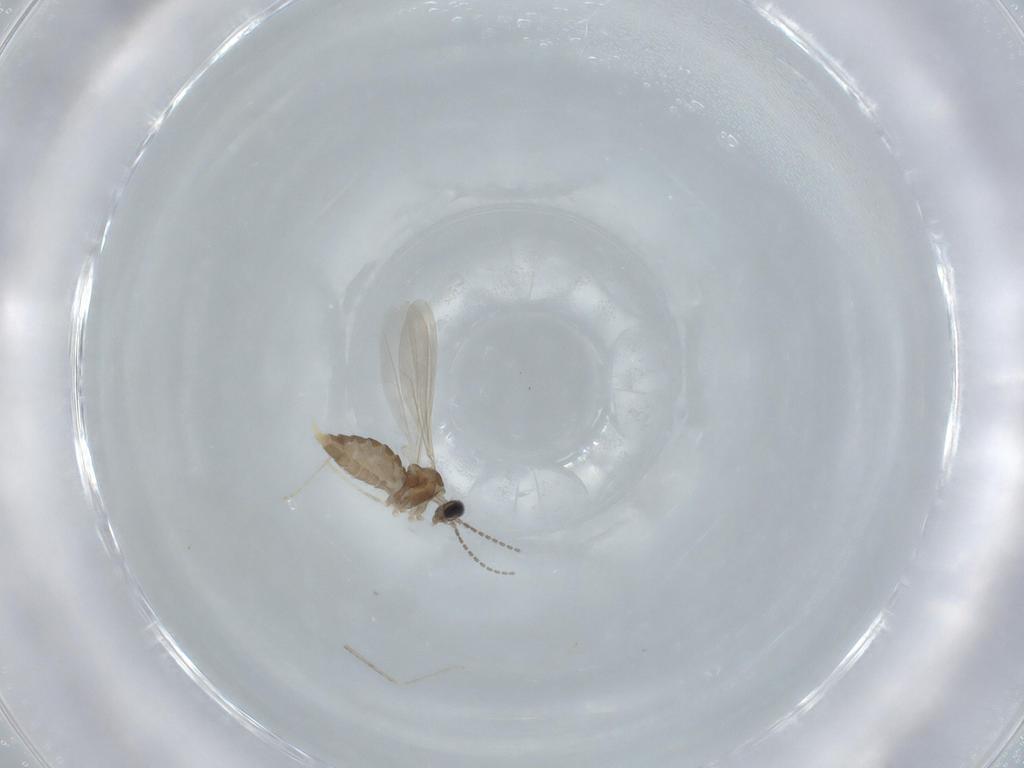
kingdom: Animalia
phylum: Arthropoda
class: Insecta
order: Diptera
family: Cecidomyiidae
